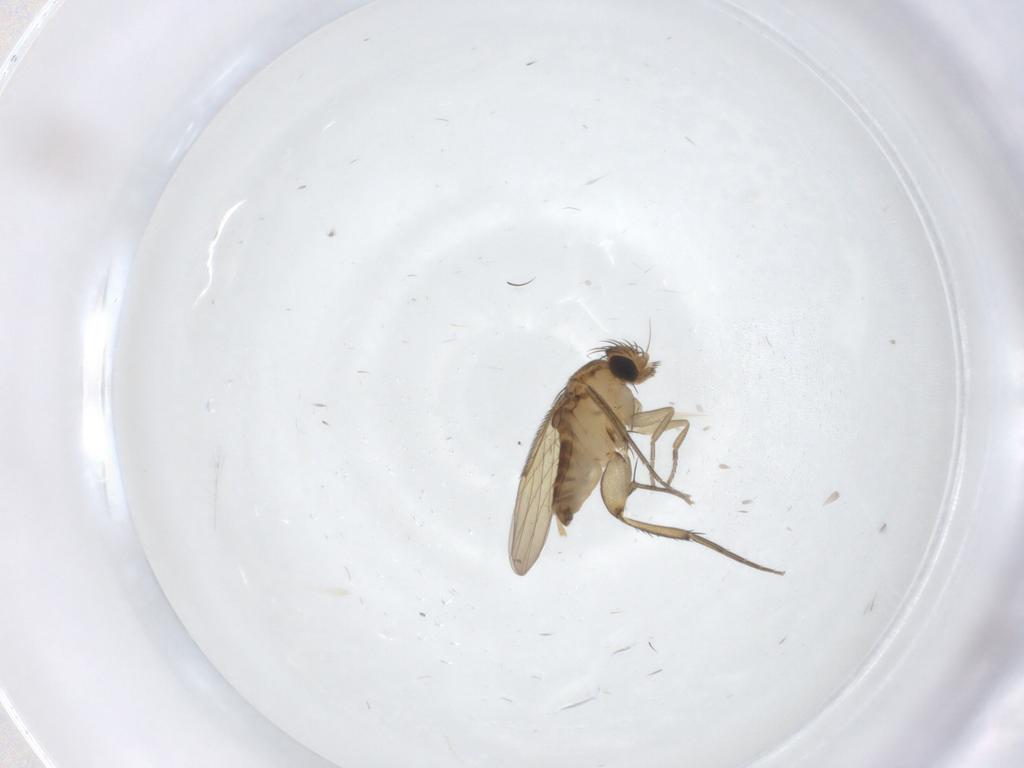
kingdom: Animalia
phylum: Arthropoda
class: Insecta
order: Diptera
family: Phoridae
